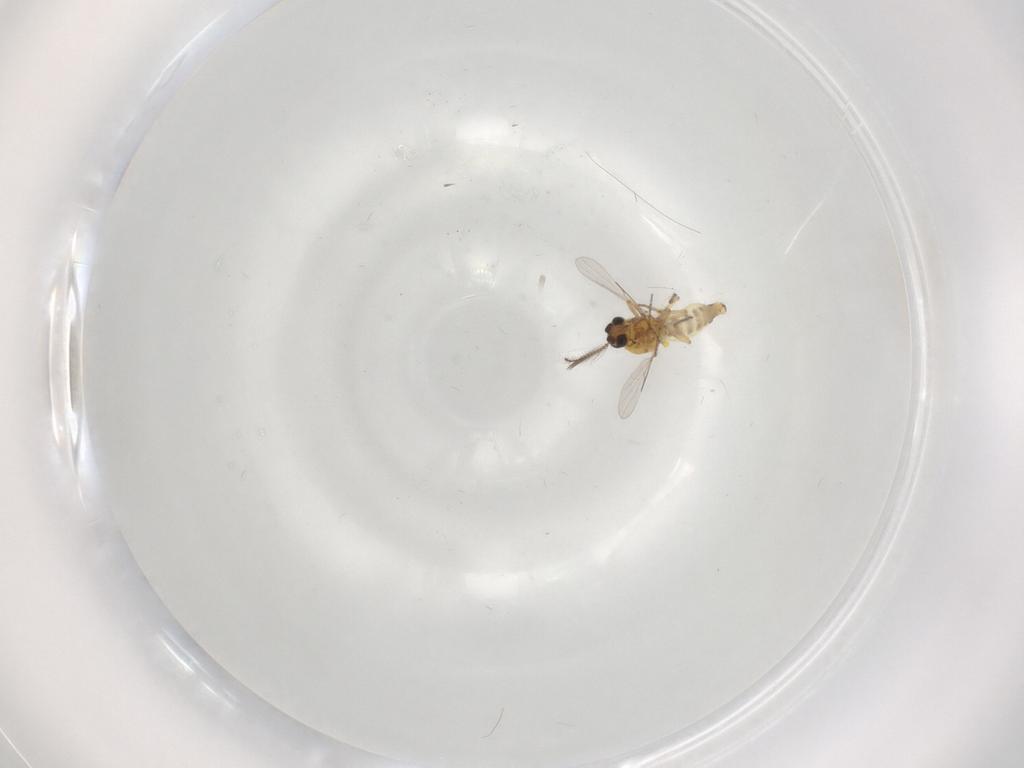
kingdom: Animalia
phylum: Arthropoda
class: Insecta
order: Diptera
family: Ceratopogonidae
